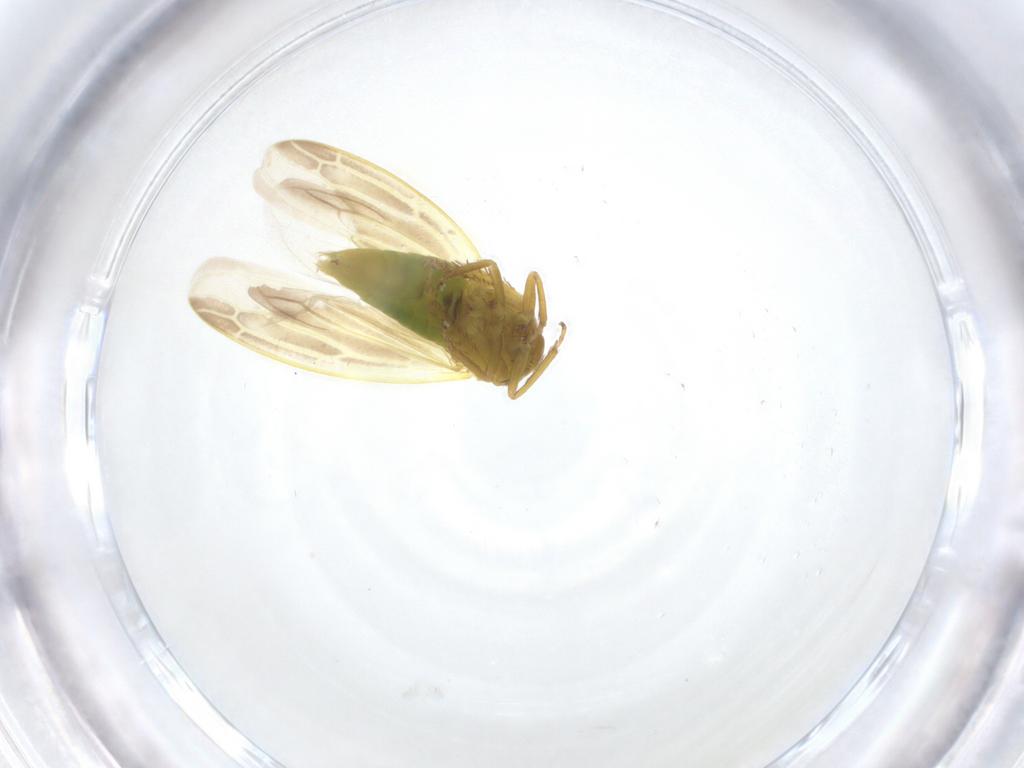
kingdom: Animalia
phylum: Arthropoda
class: Insecta
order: Hemiptera
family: Cicadellidae
